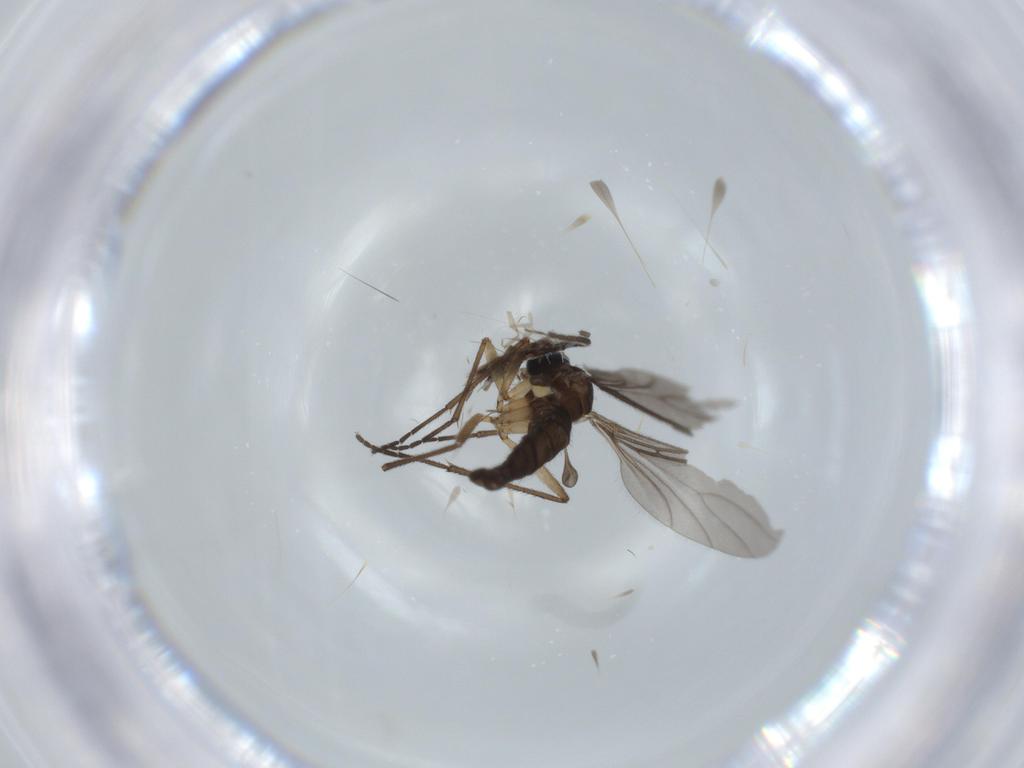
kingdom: Animalia
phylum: Arthropoda
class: Insecta
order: Diptera
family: Sciaridae
